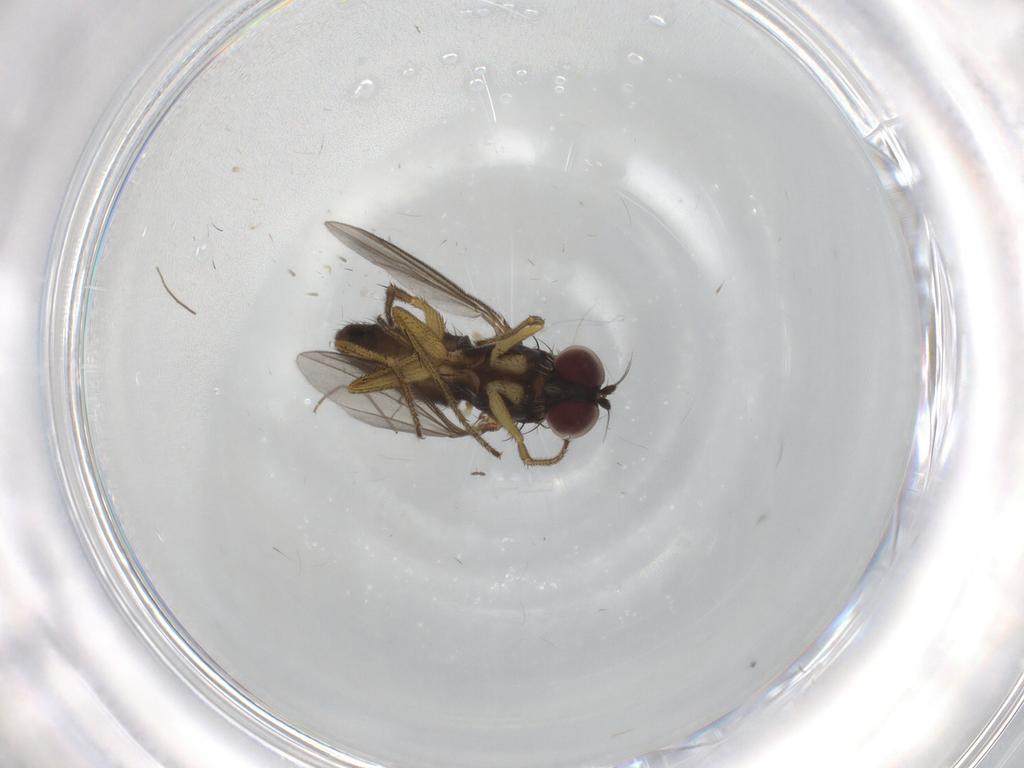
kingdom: Animalia
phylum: Arthropoda
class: Insecta
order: Diptera
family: Chironomidae
